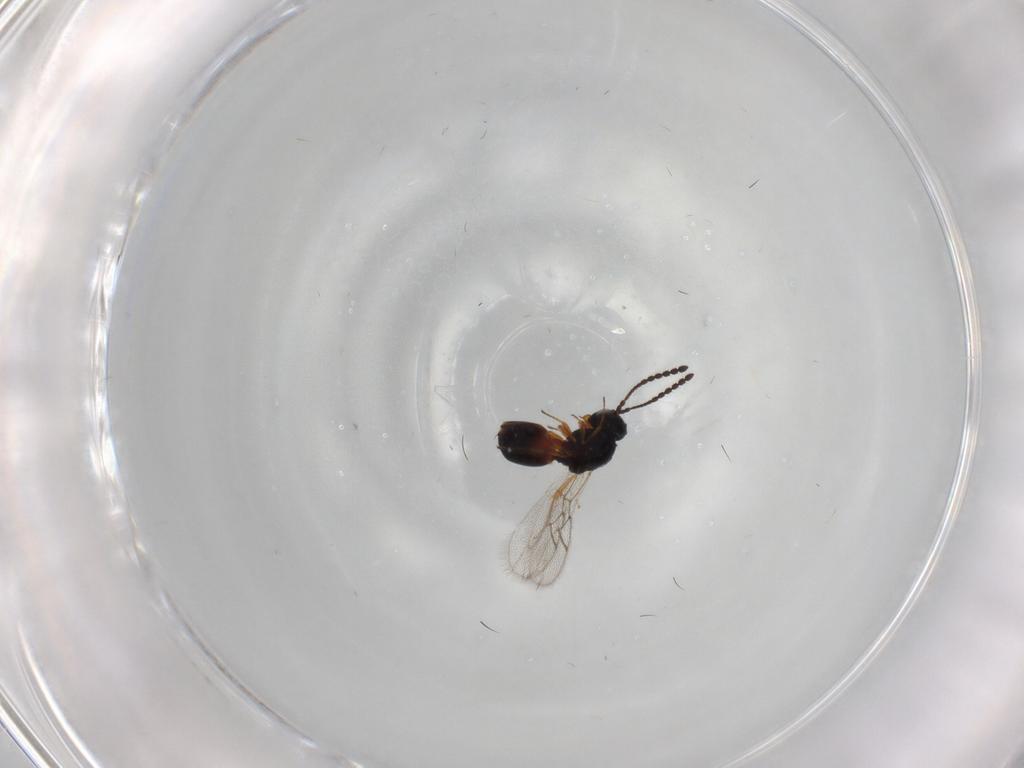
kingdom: Animalia
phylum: Arthropoda
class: Insecta
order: Hymenoptera
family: Figitidae
